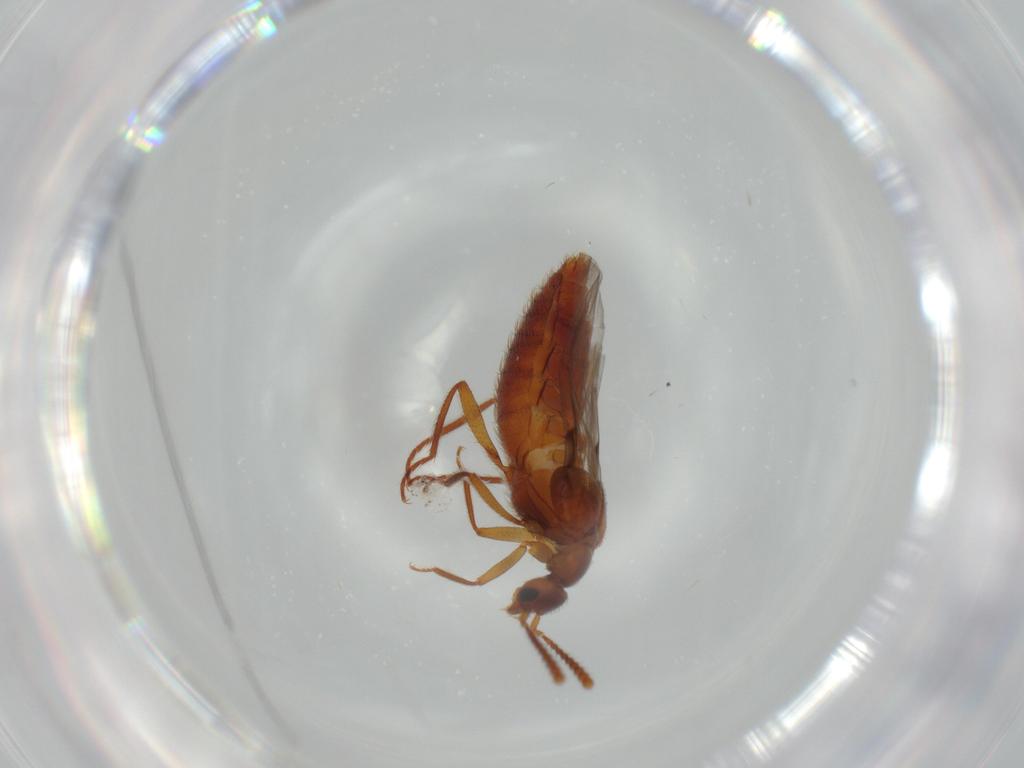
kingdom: Animalia
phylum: Arthropoda
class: Insecta
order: Coleoptera
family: Staphylinidae
